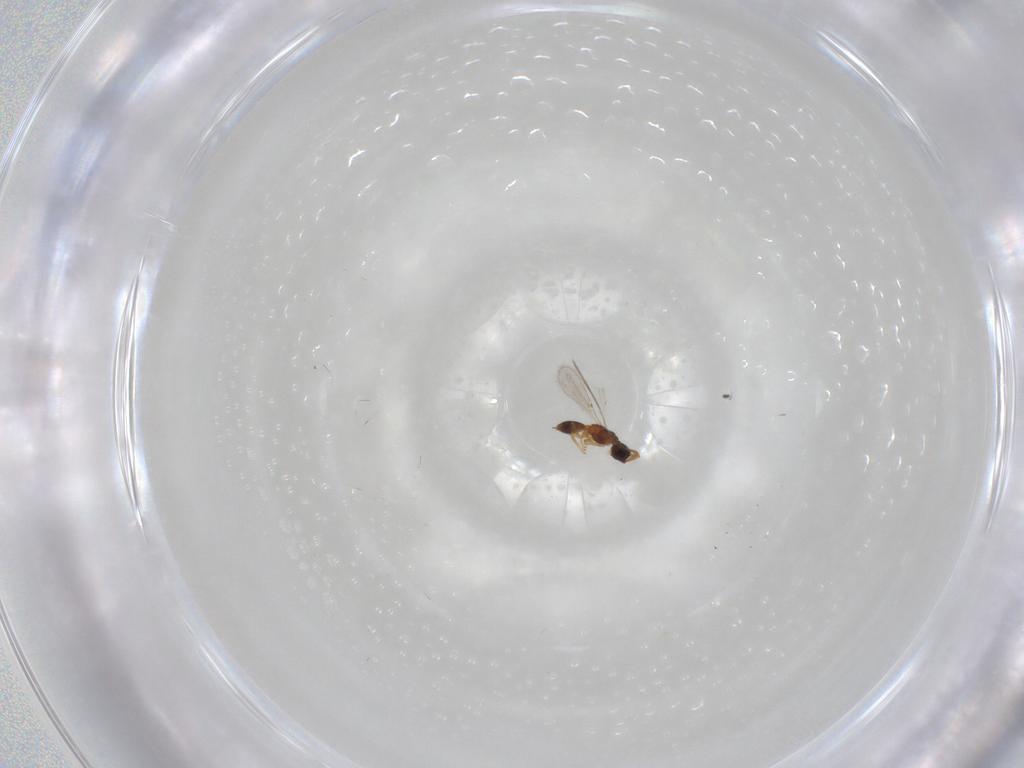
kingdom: Animalia
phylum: Arthropoda
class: Insecta
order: Hymenoptera
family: Diapriidae
